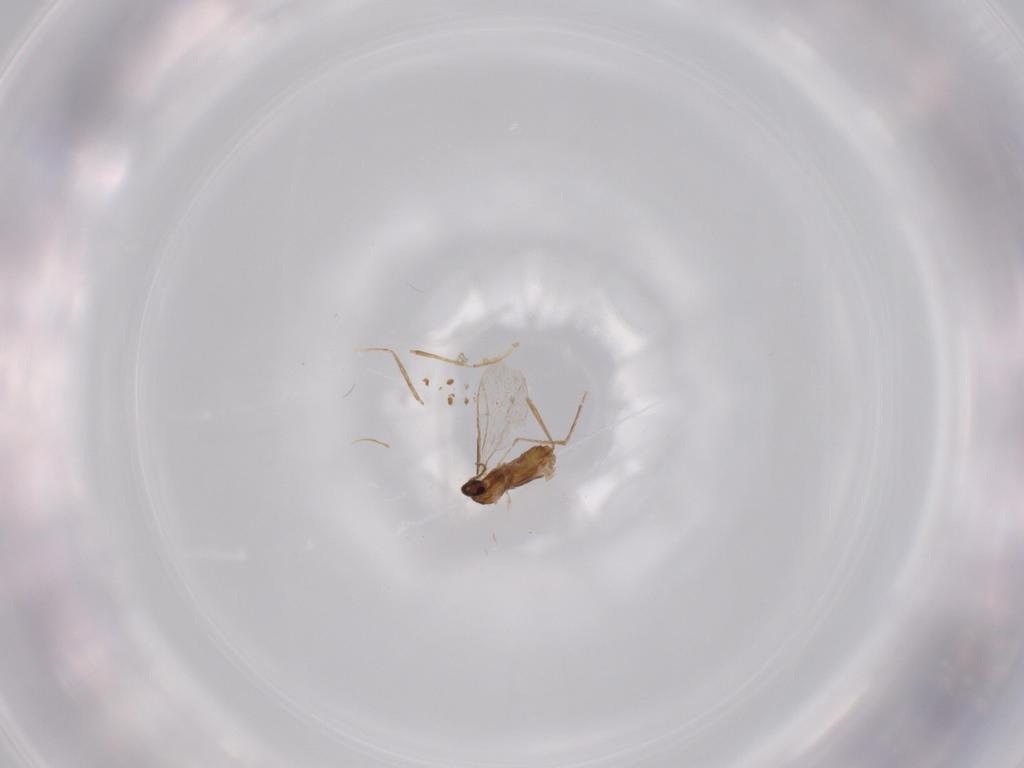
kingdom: Animalia
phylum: Arthropoda
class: Insecta
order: Diptera
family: Cecidomyiidae
